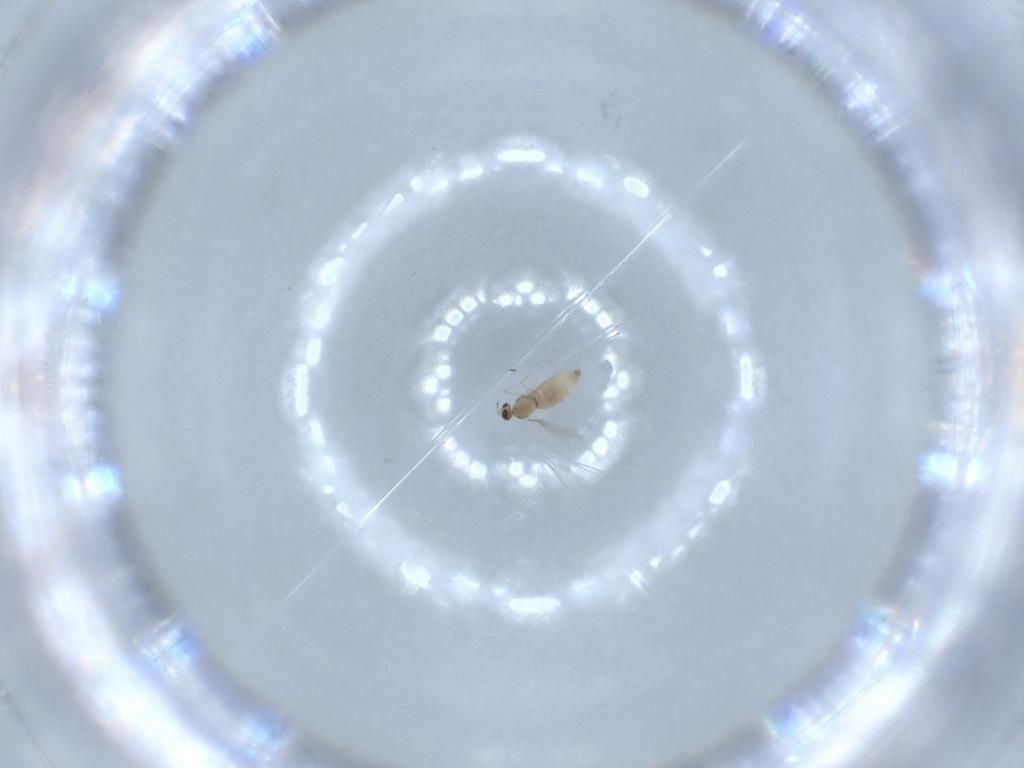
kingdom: Animalia
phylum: Arthropoda
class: Insecta
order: Diptera
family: Cecidomyiidae
